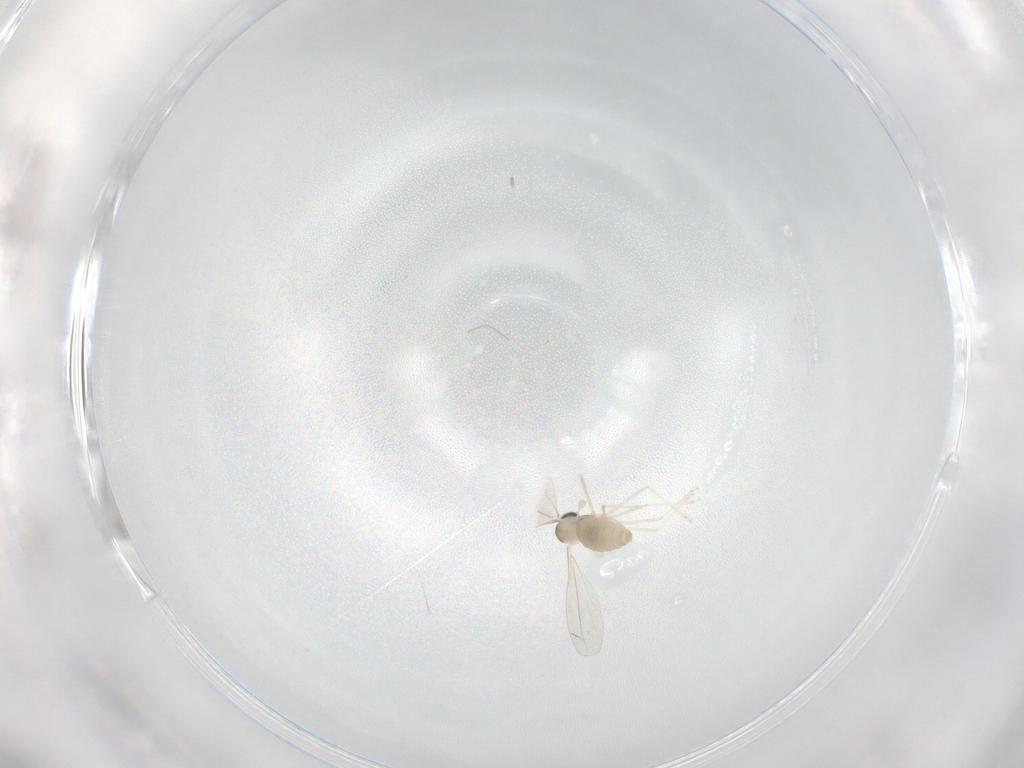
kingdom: Animalia
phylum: Arthropoda
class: Insecta
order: Diptera
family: Cecidomyiidae
